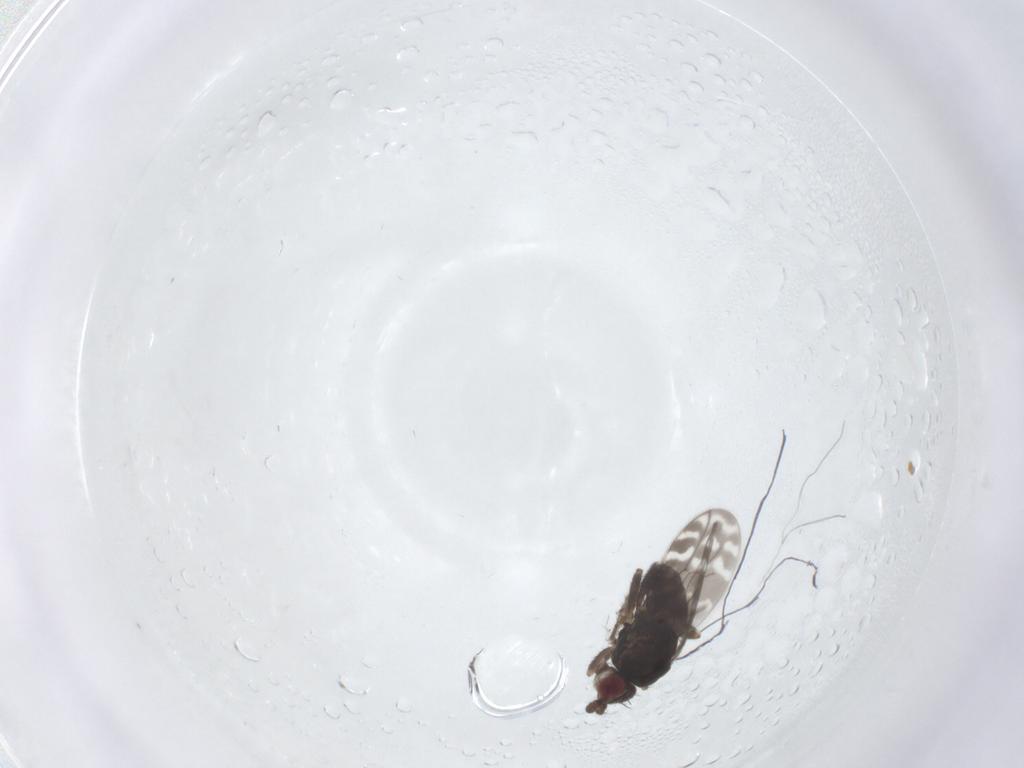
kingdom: Animalia
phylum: Arthropoda
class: Insecta
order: Diptera
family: Sphaeroceridae
